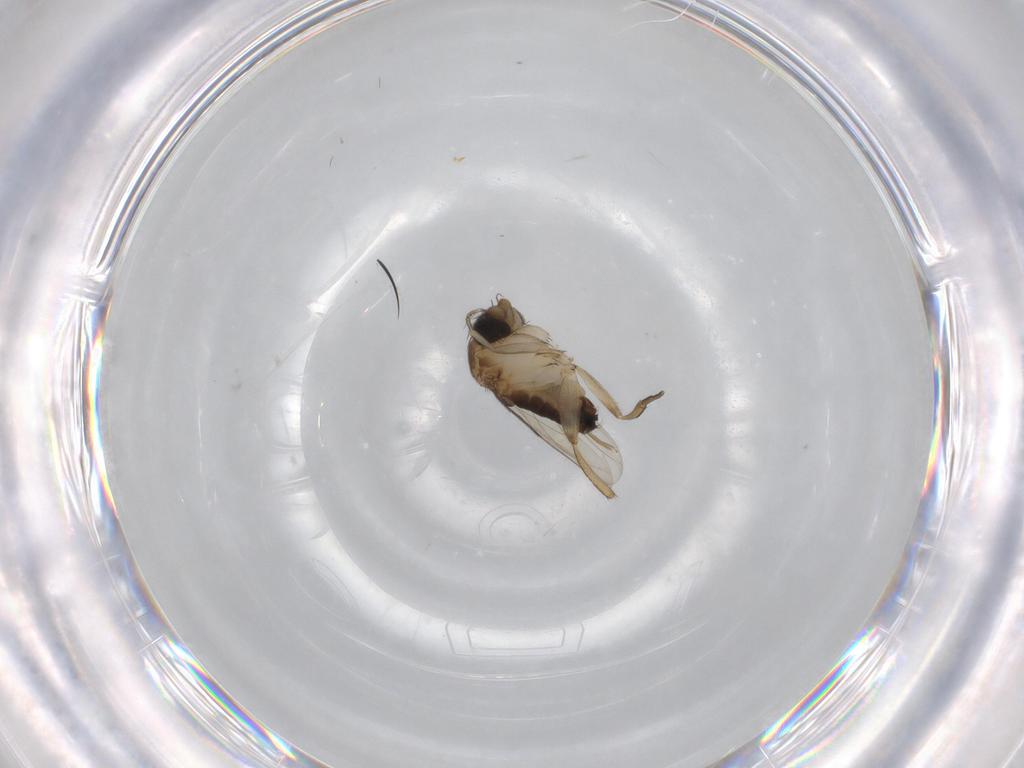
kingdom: Animalia
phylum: Arthropoda
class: Insecta
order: Diptera
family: Phoridae
